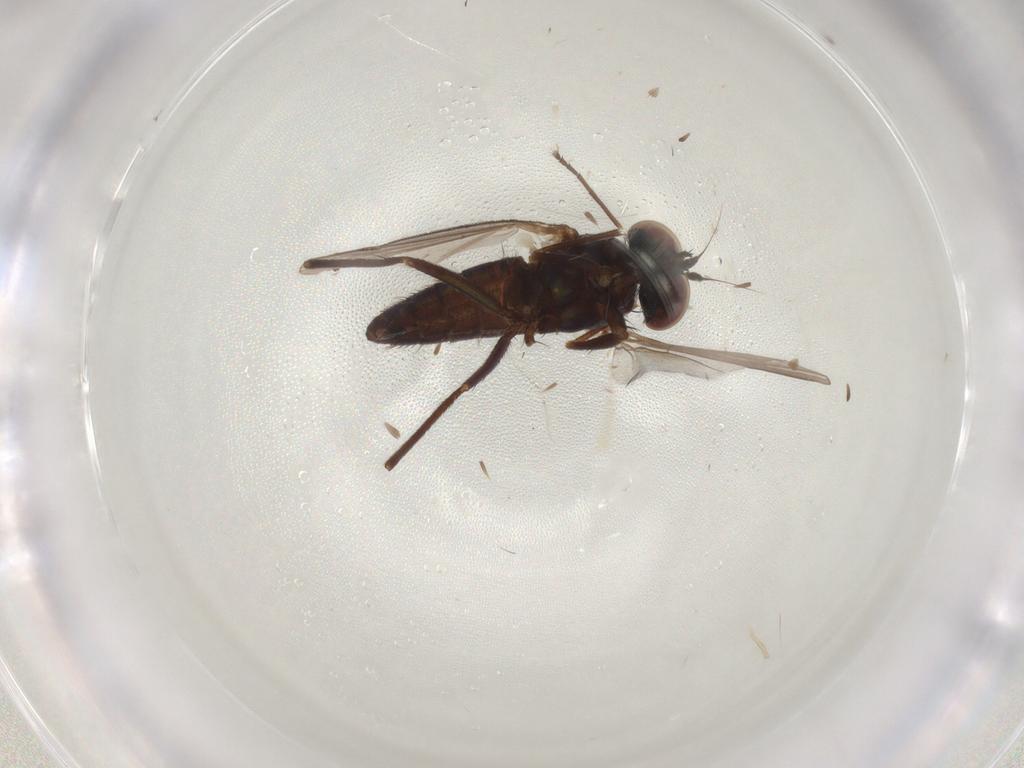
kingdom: Animalia
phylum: Arthropoda
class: Insecta
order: Diptera
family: Dolichopodidae
